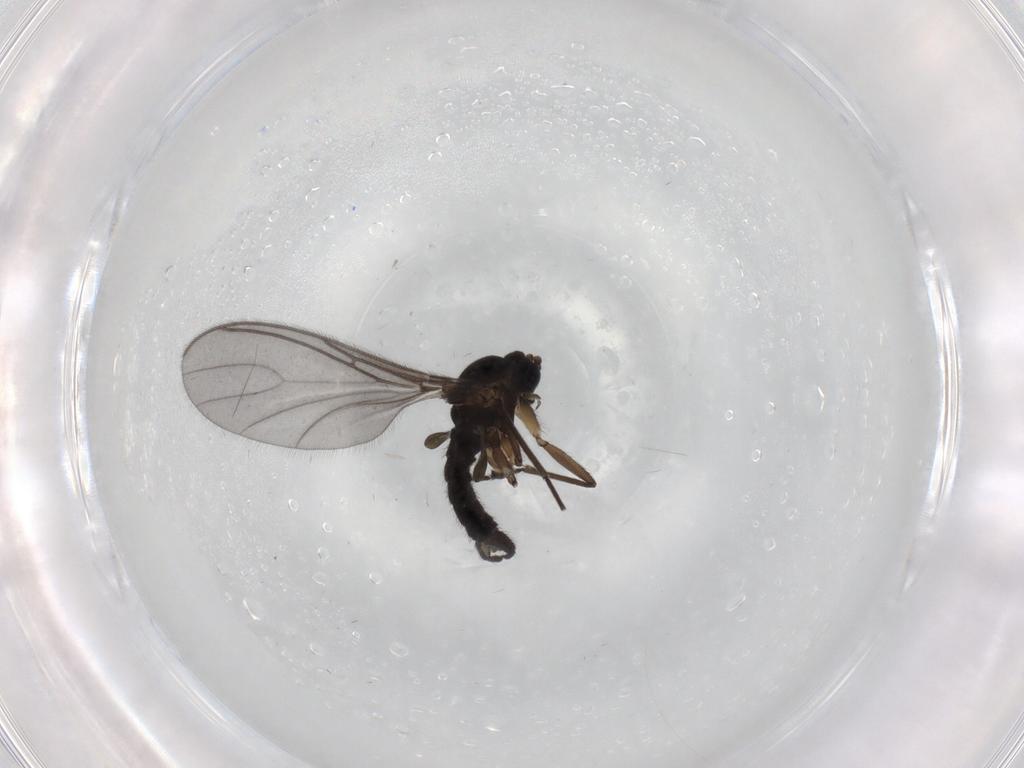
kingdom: Animalia
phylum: Arthropoda
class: Insecta
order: Diptera
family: Sciaridae
